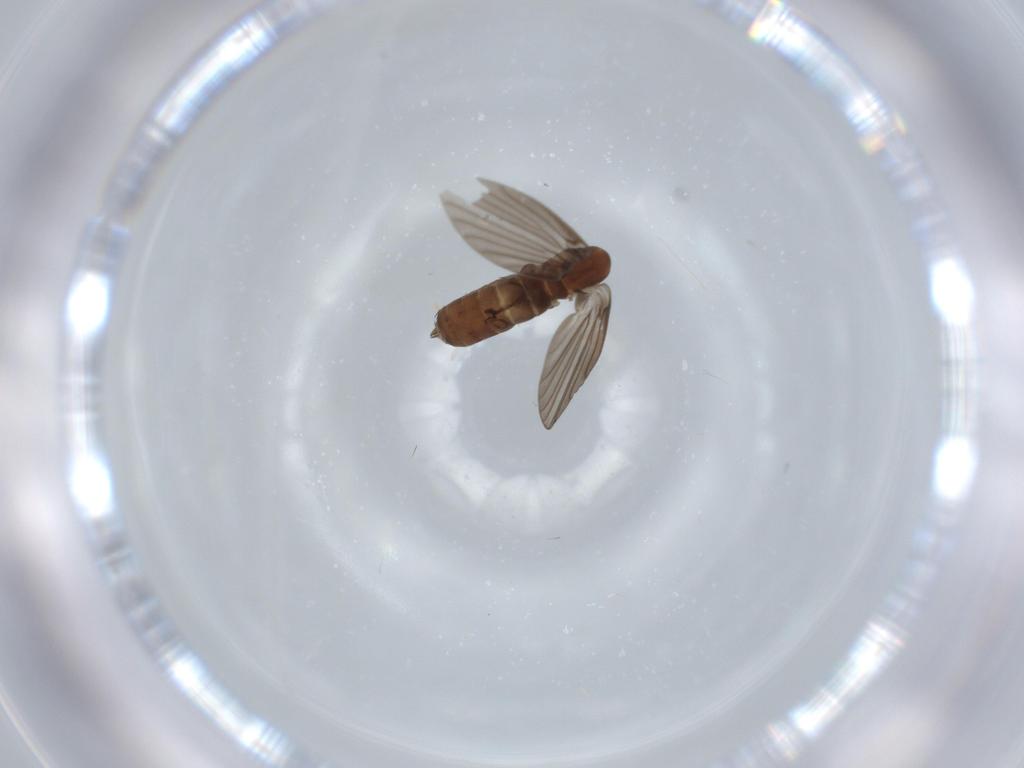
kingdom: Animalia
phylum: Arthropoda
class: Insecta
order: Diptera
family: Psychodidae
